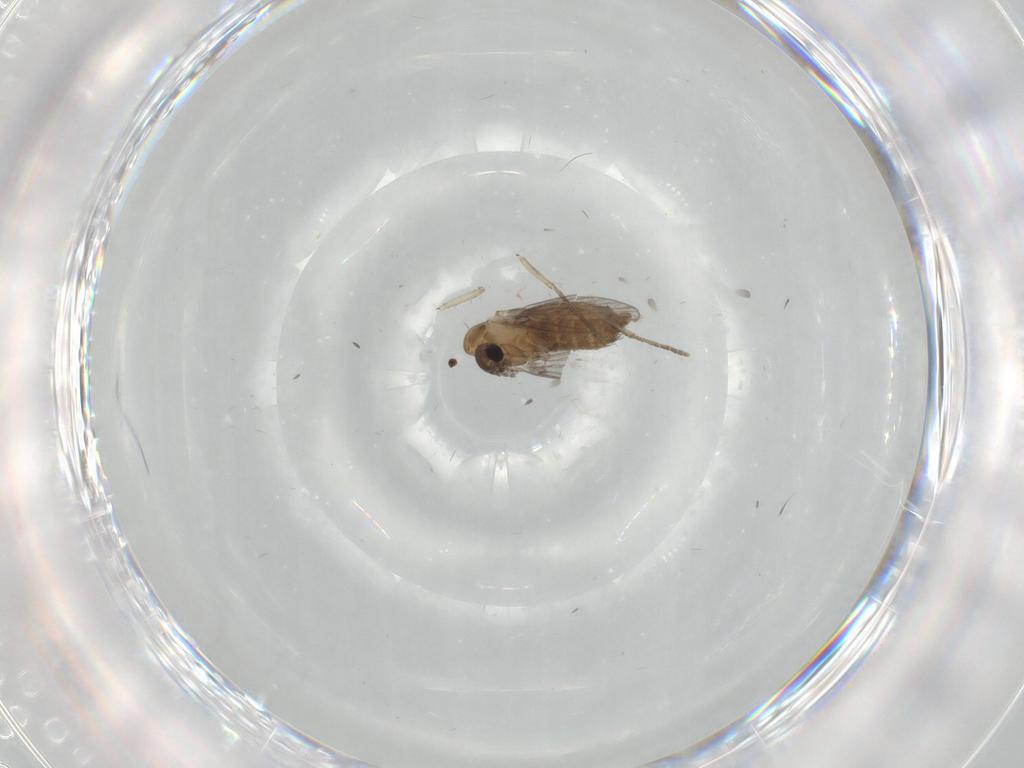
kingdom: Animalia
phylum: Arthropoda
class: Insecta
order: Diptera
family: Psychodidae
